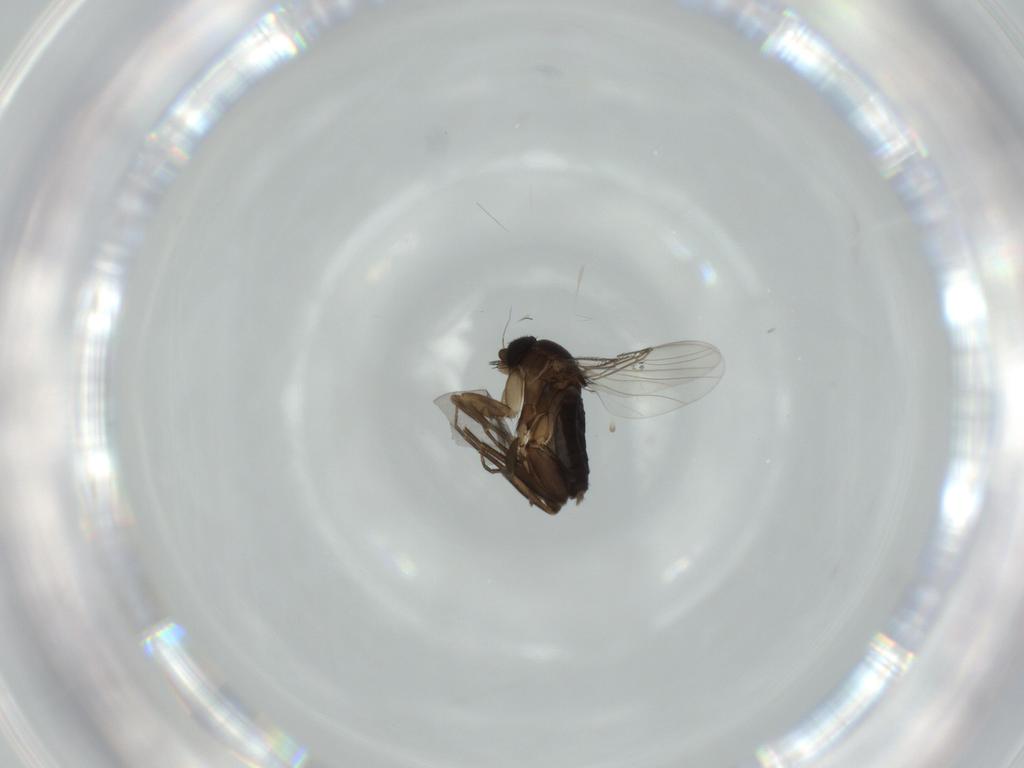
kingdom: Animalia
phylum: Arthropoda
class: Insecta
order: Diptera
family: Phoridae
